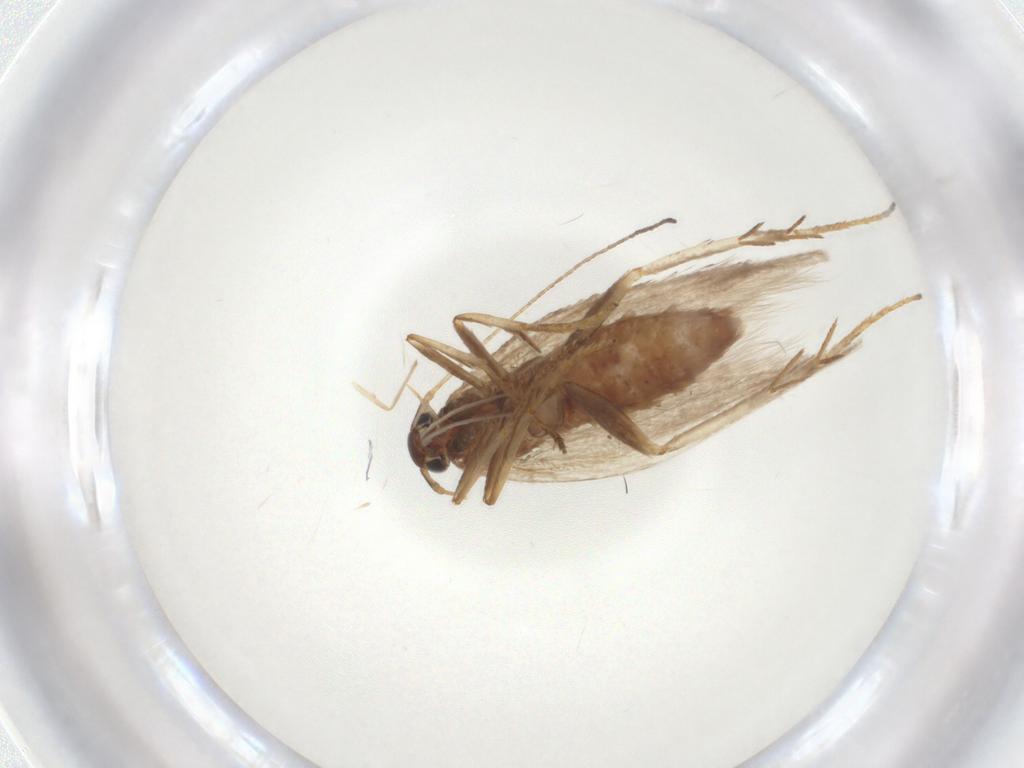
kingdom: Animalia
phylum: Arthropoda
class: Insecta
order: Lepidoptera
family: Erebidae
